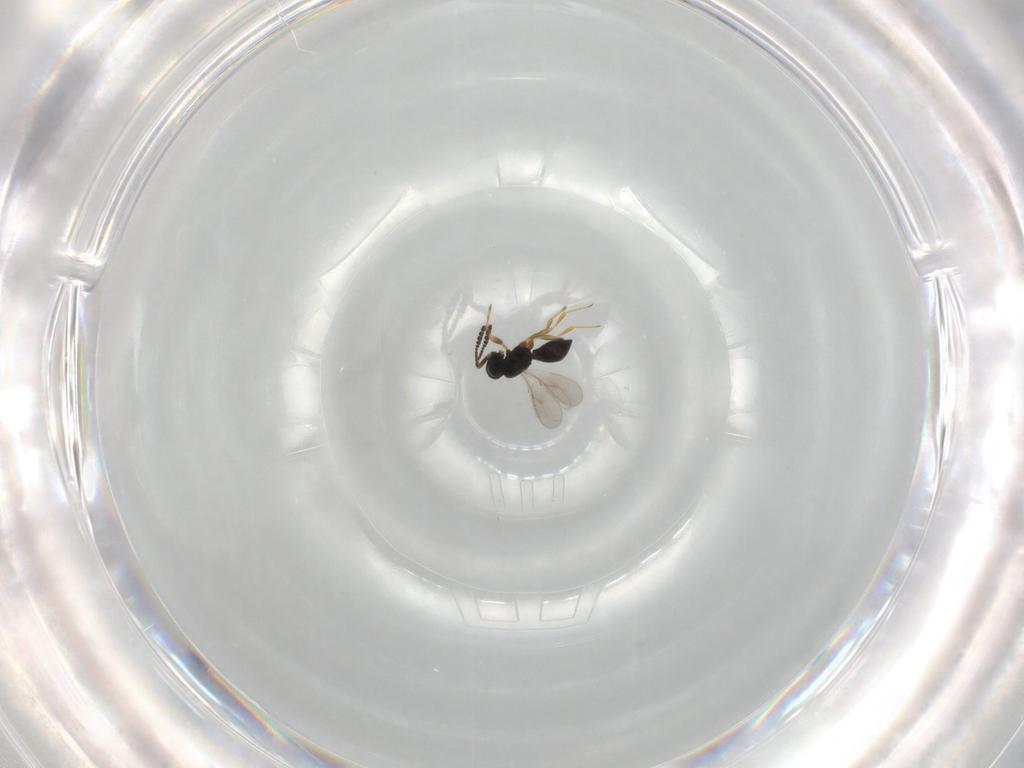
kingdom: Animalia
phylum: Arthropoda
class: Insecta
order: Hymenoptera
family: Scelionidae
